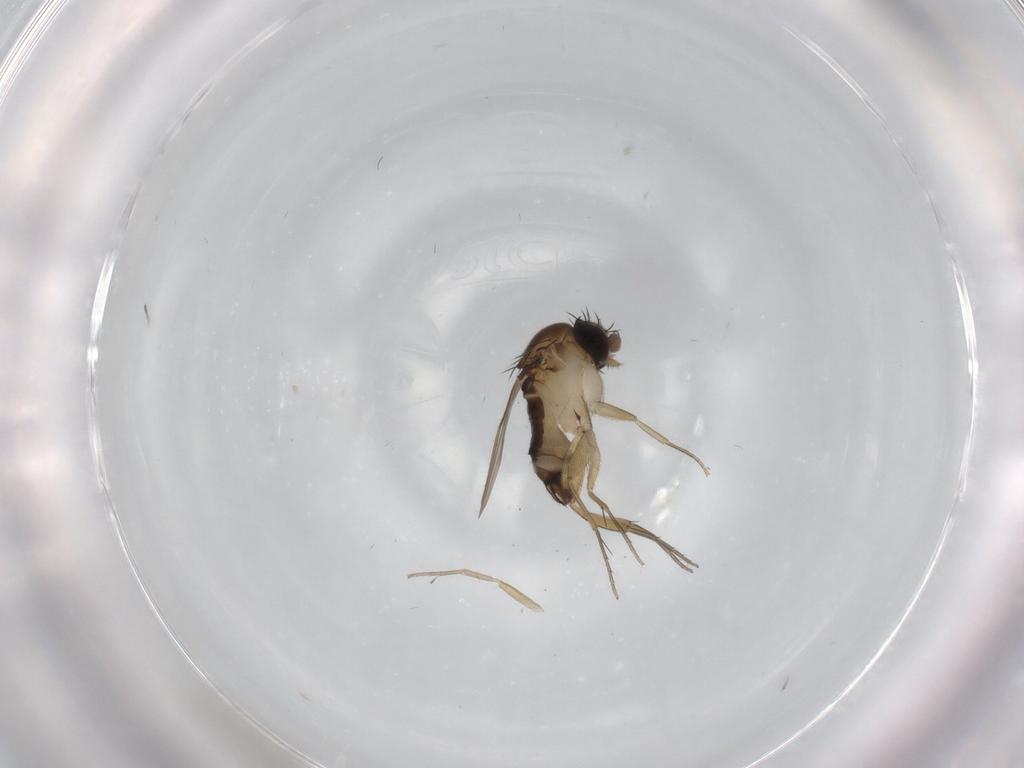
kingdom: Animalia
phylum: Arthropoda
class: Insecta
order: Diptera
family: Phoridae
